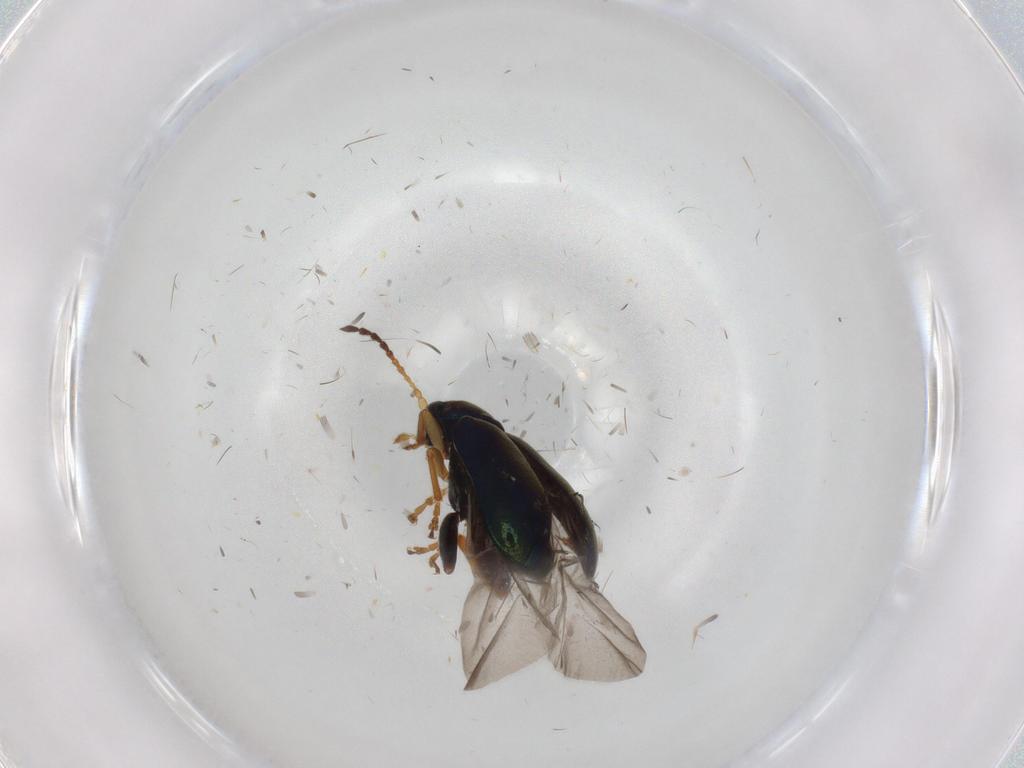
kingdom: Animalia
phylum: Arthropoda
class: Insecta
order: Coleoptera
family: Chrysomelidae
